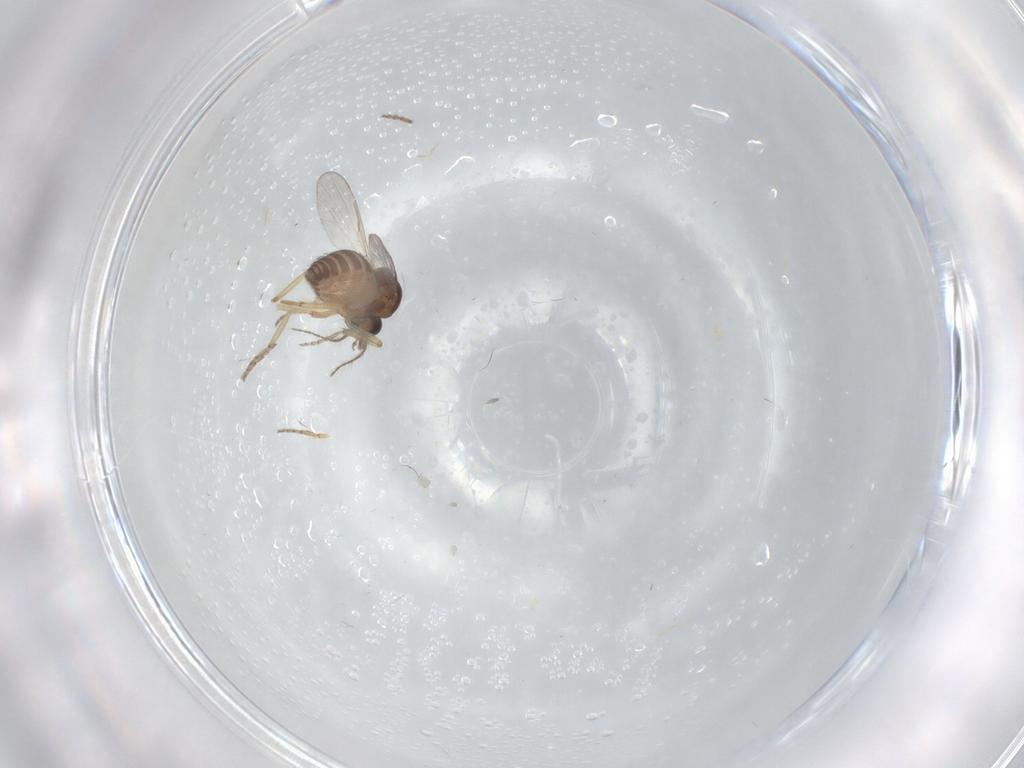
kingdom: Animalia
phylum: Arthropoda
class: Insecta
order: Diptera
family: Ceratopogonidae
